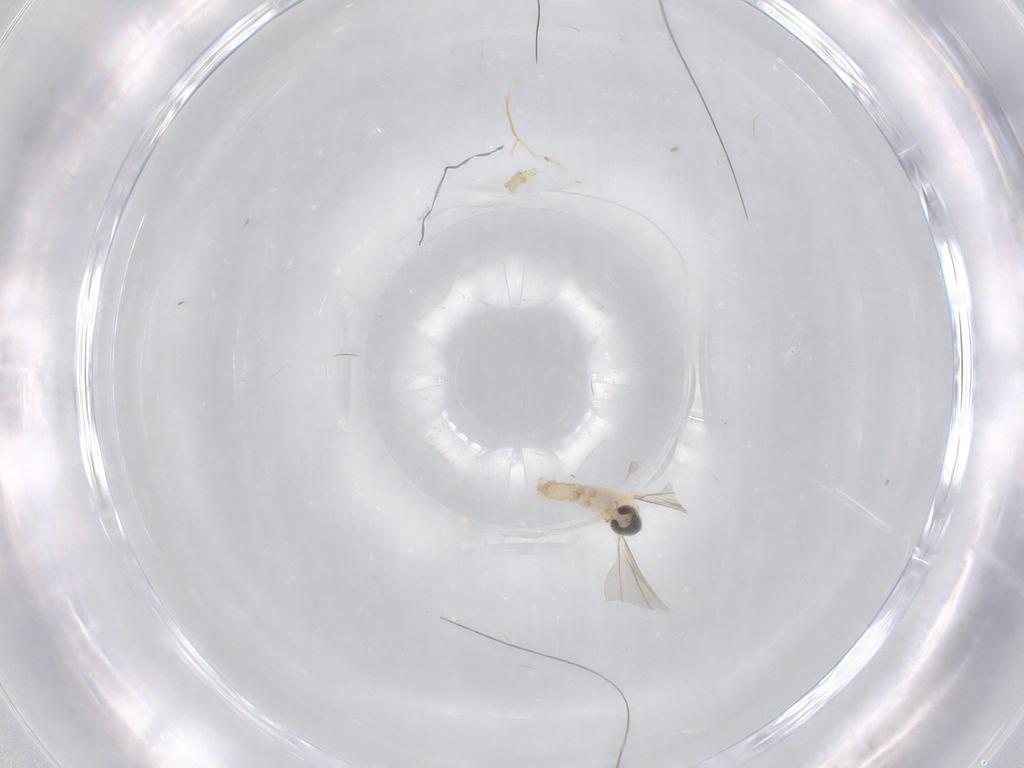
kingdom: Animalia
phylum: Arthropoda
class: Insecta
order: Diptera
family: Cecidomyiidae
